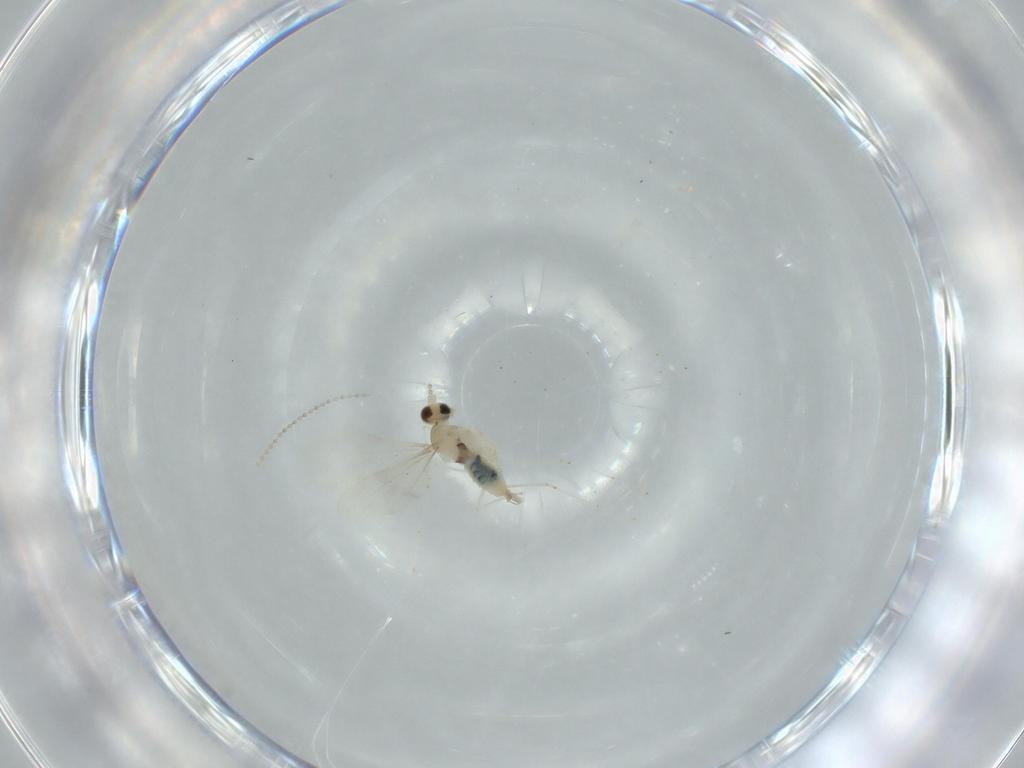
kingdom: Animalia
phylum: Arthropoda
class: Insecta
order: Diptera
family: Cecidomyiidae
